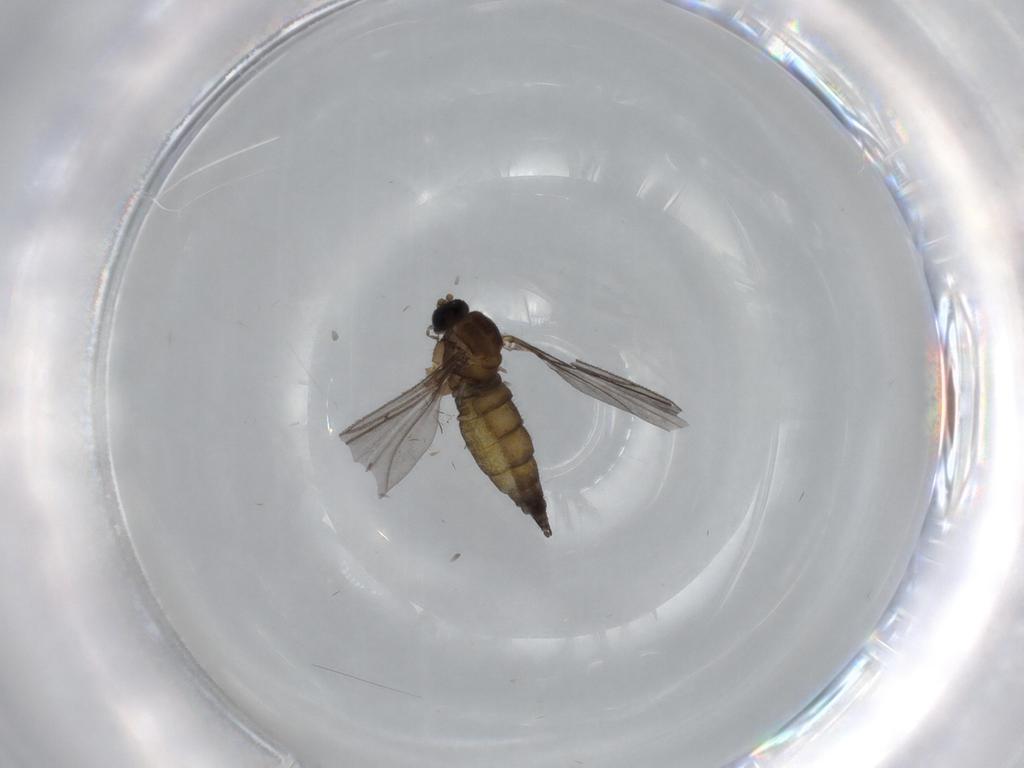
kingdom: Animalia
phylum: Arthropoda
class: Insecta
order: Diptera
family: Sciaridae
